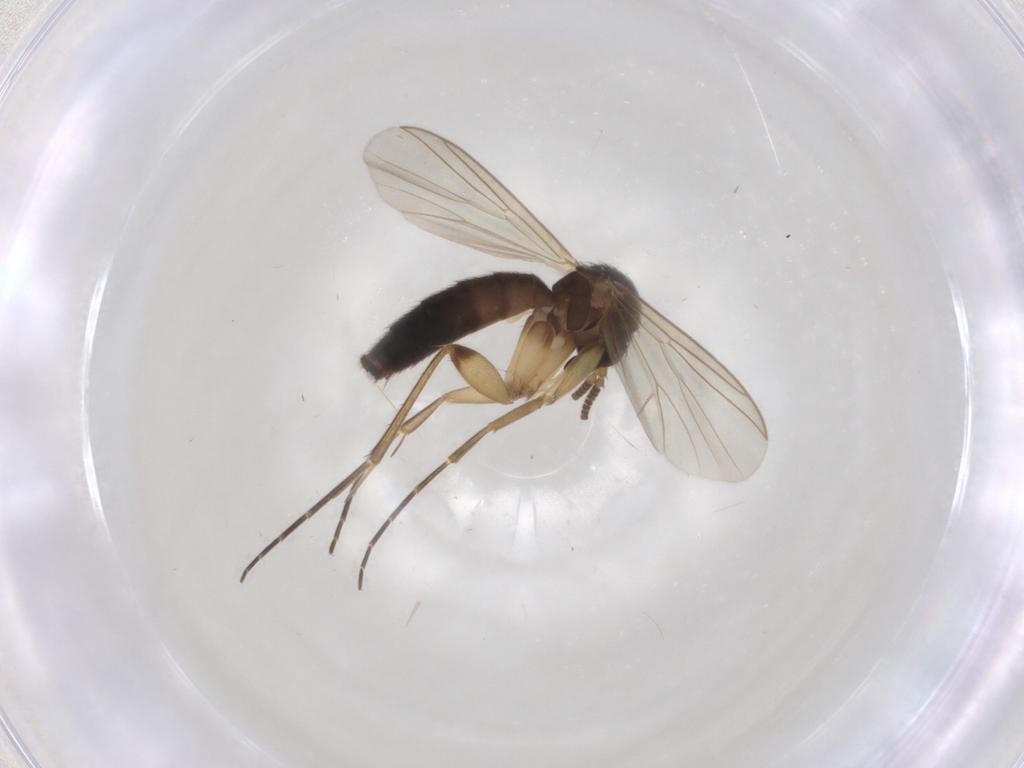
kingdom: Animalia
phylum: Arthropoda
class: Insecta
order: Diptera
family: Mycetophilidae
